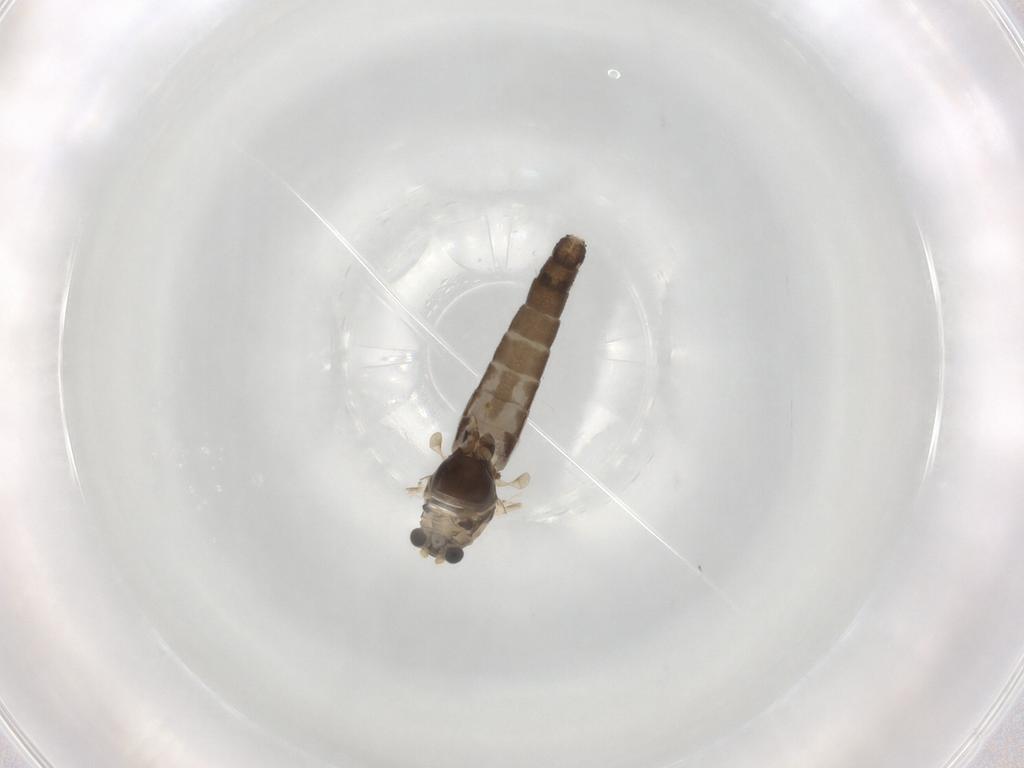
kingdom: Animalia
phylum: Arthropoda
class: Insecta
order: Diptera
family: Chironomidae
